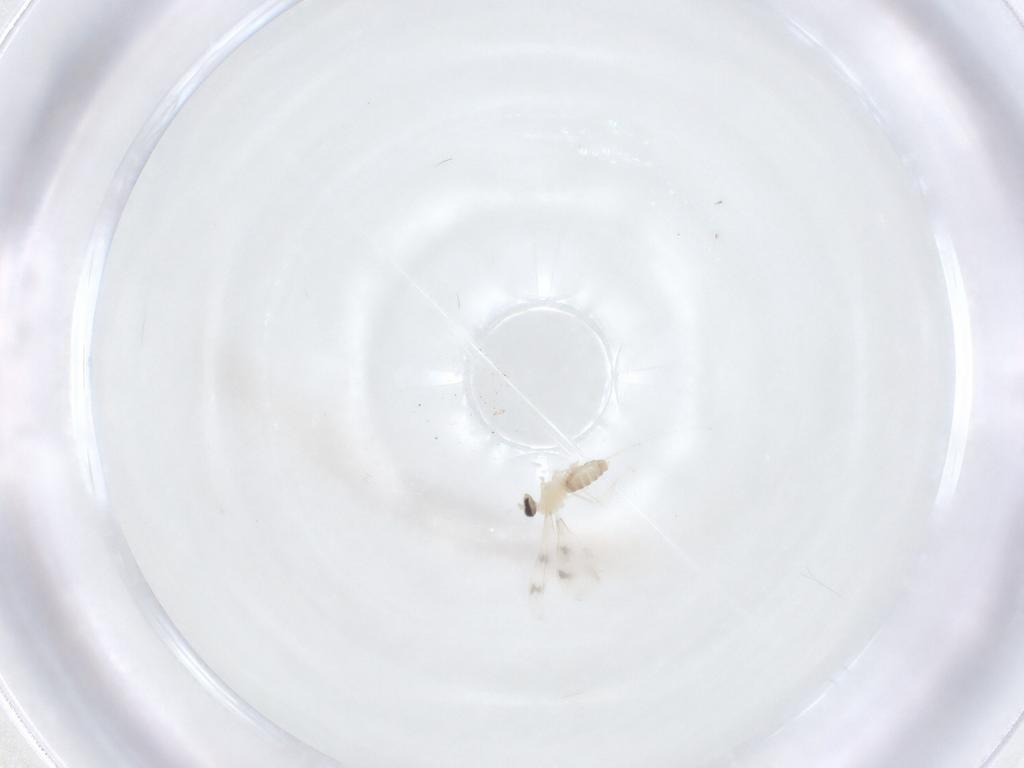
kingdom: Animalia
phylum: Arthropoda
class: Insecta
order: Diptera
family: Cecidomyiidae
